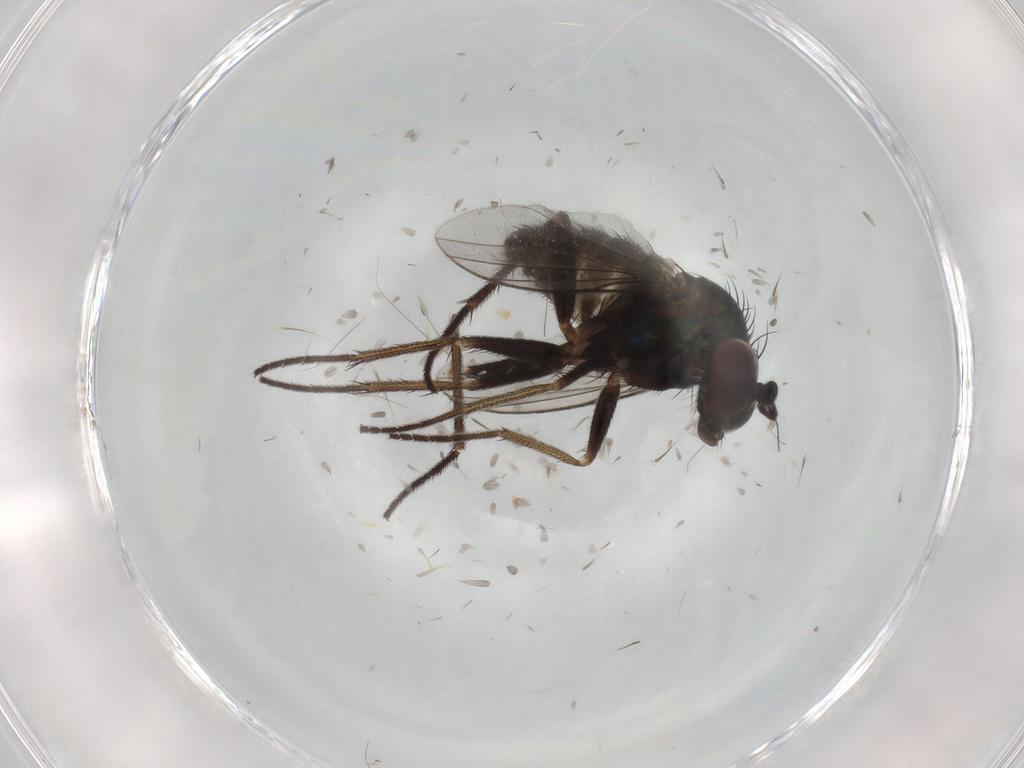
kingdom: Animalia
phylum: Arthropoda
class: Insecta
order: Diptera
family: Dolichopodidae
